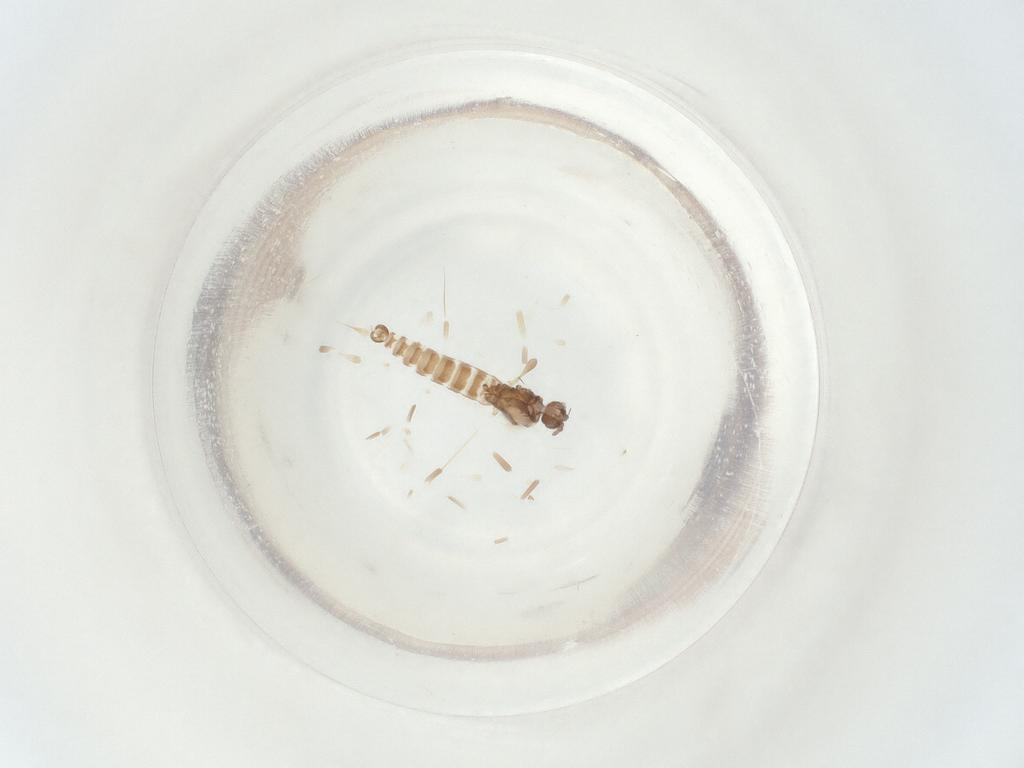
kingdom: Animalia
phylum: Arthropoda
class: Insecta
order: Diptera
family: Sciaridae
